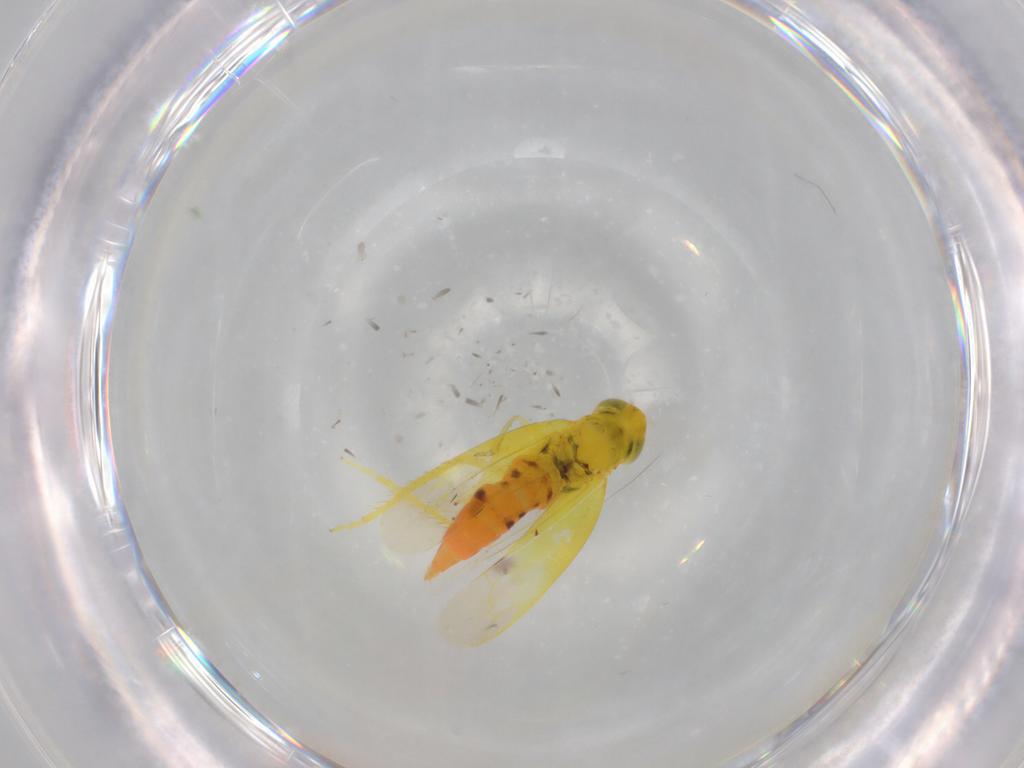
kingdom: Animalia
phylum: Arthropoda
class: Insecta
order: Hemiptera
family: Cicadellidae
